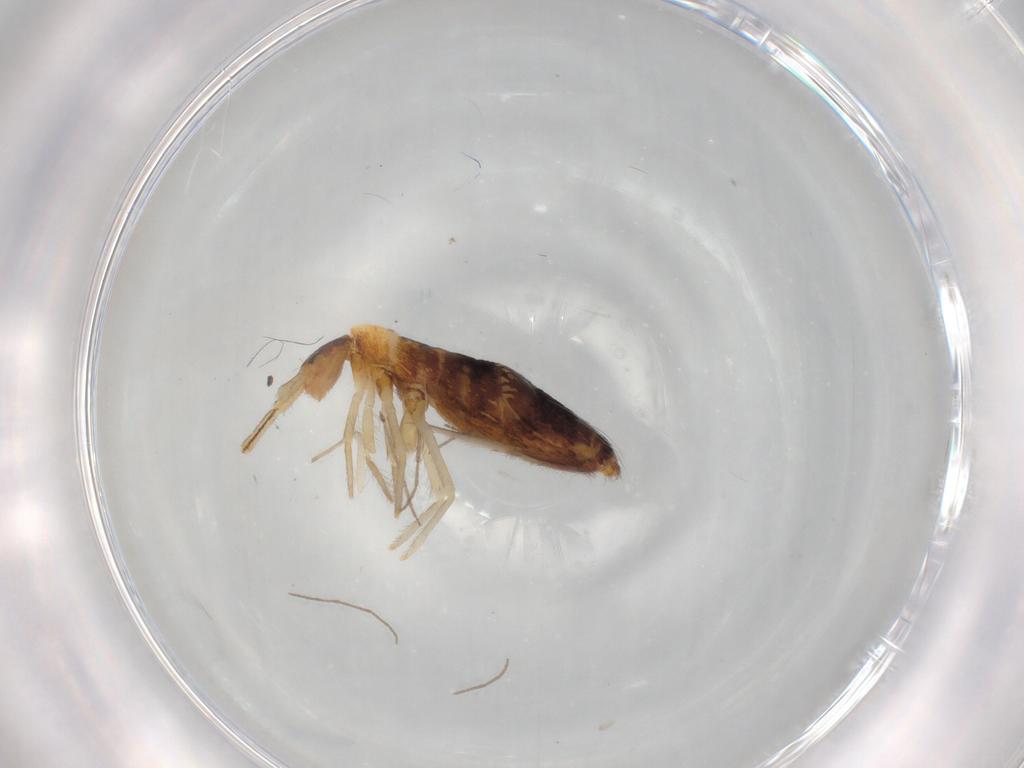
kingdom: Animalia
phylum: Arthropoda
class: Collembola
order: Entomobryomorpha
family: Entomobryidae
